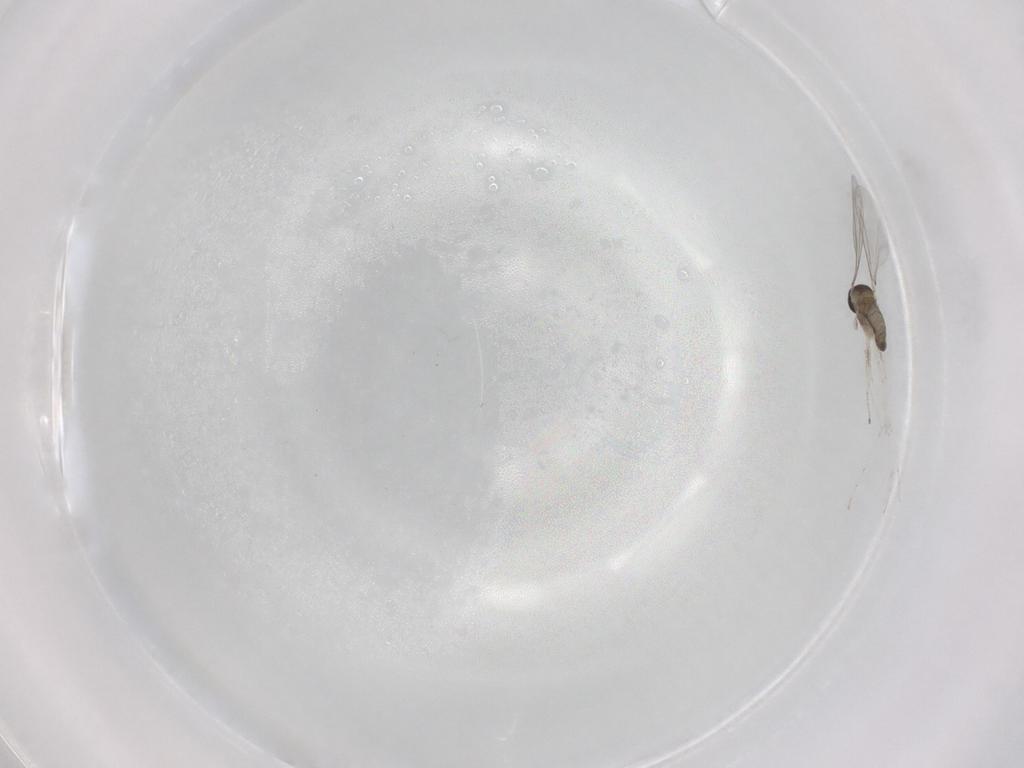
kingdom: Animalia
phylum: Arthropoda
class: Insecta
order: Diptera
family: Cecidomyiidae
